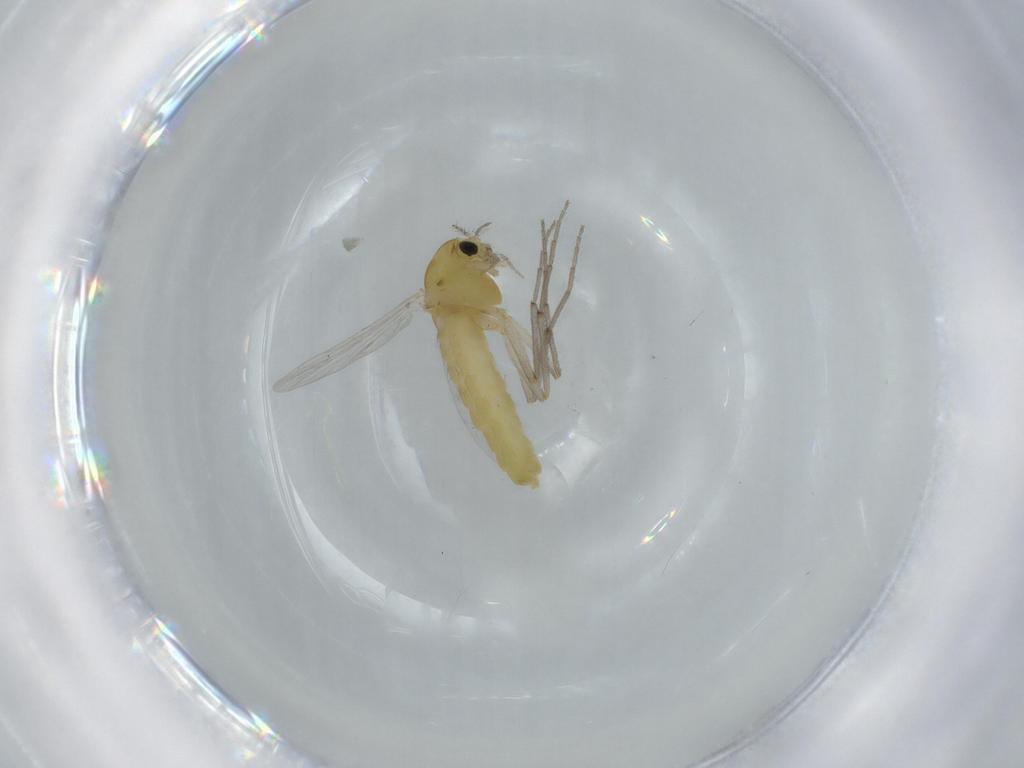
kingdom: Animalia
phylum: Arthropoda
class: Insecta
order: Diptera
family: Chironomidae
